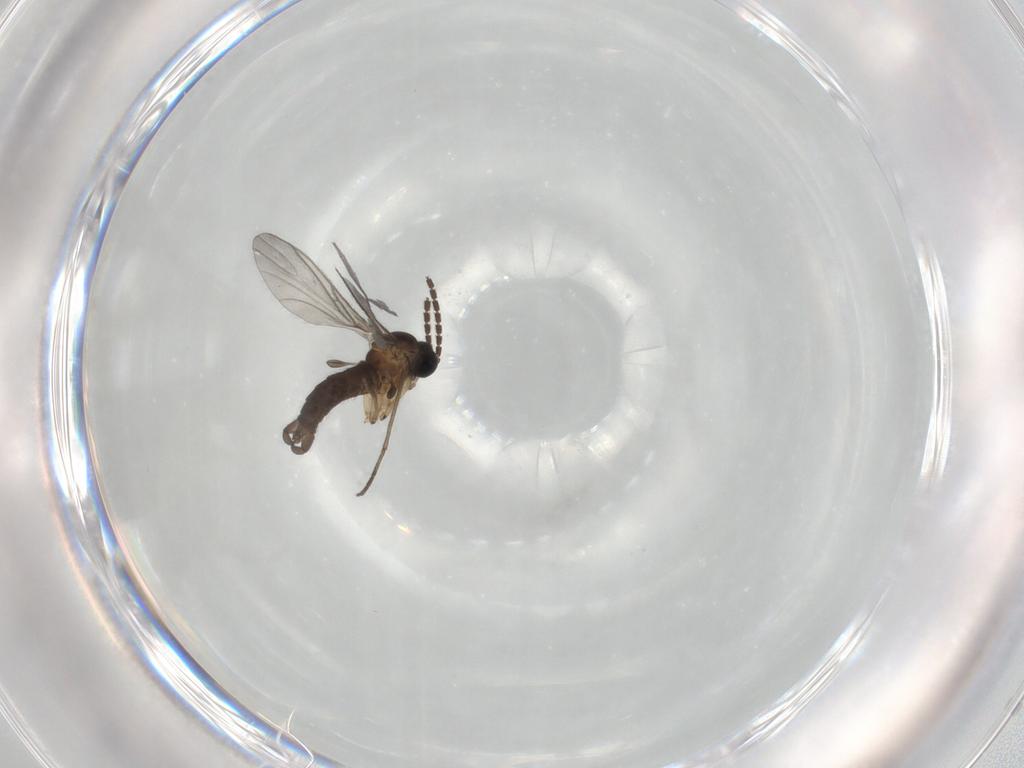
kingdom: Animalia
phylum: Arthropoda
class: Insecta
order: Diptera
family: Sciaridae
